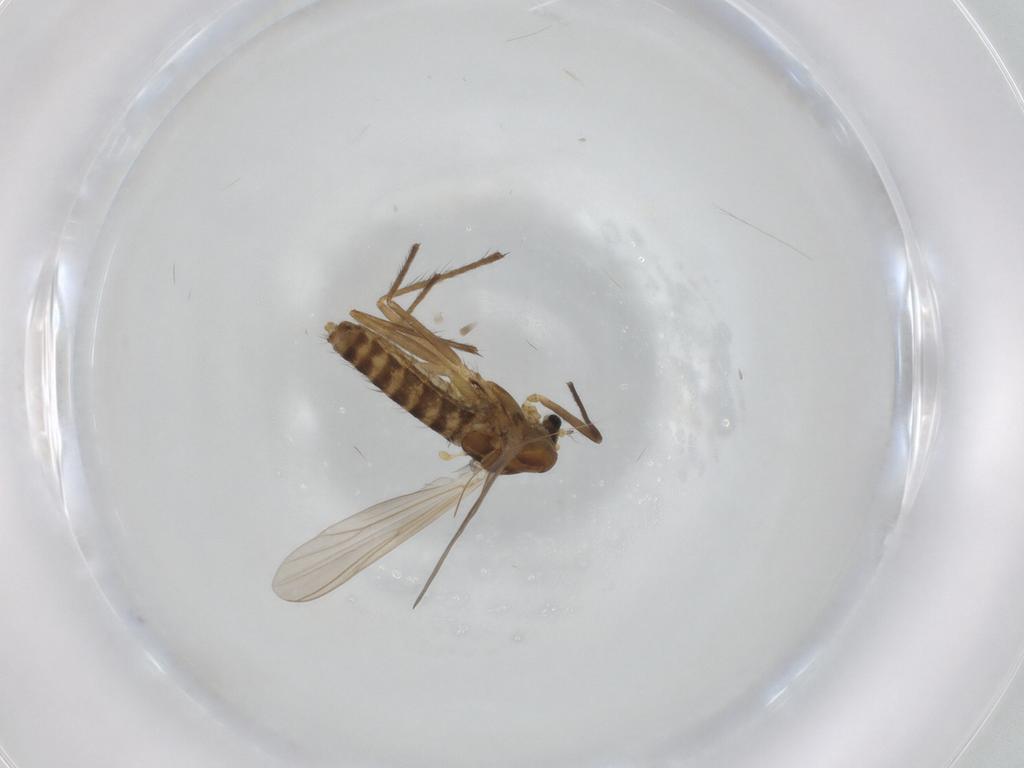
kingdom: Animalia
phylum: Arthropoda
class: Insecta
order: Diptera
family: Chironomidae
